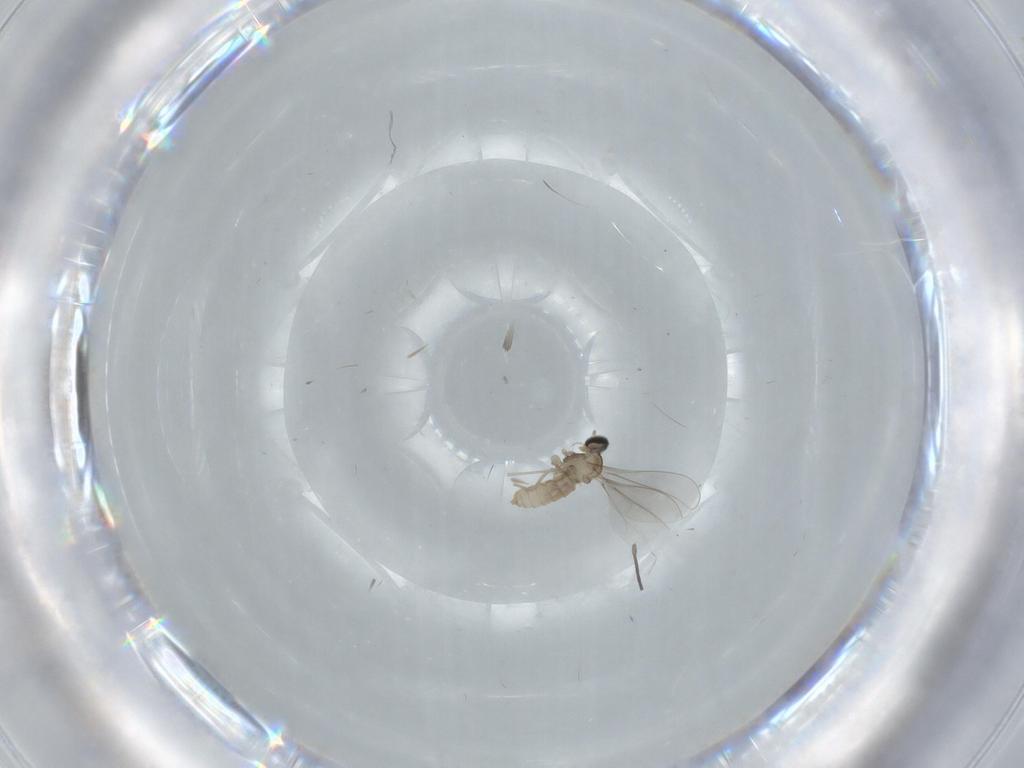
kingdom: Animalia
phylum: Arthropoda
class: Insecta
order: Diptera
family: Cecidomyiidae
